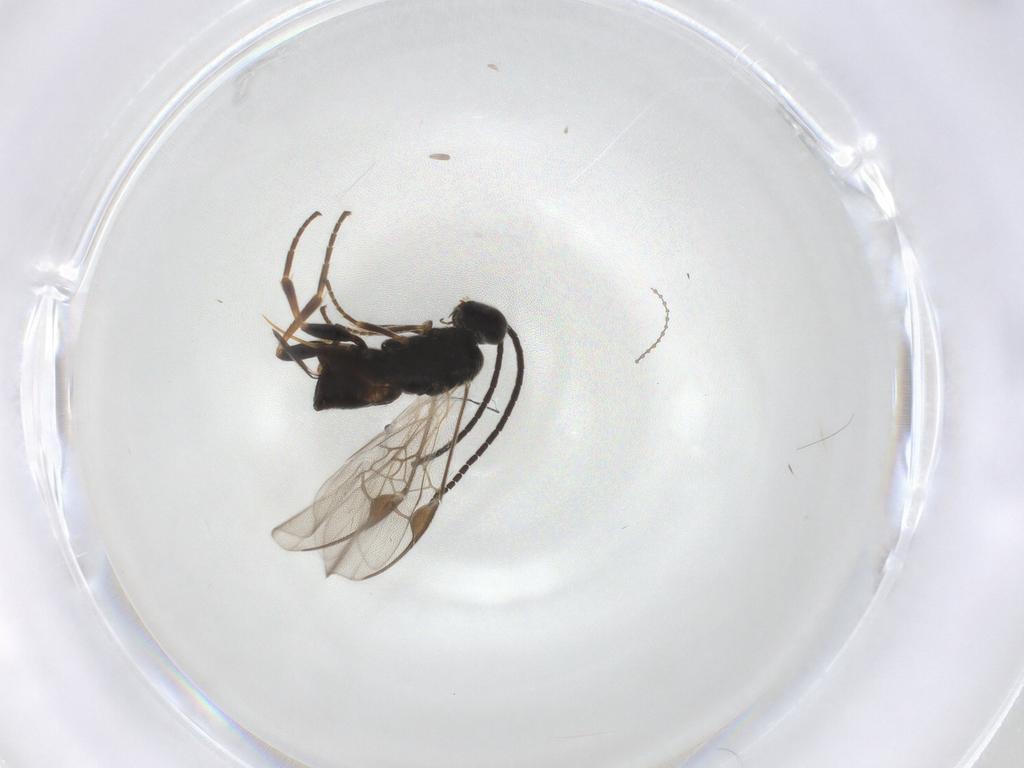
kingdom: Animalia
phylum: Arthropoda
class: Insecta
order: Hymenoptera
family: Braconidae
